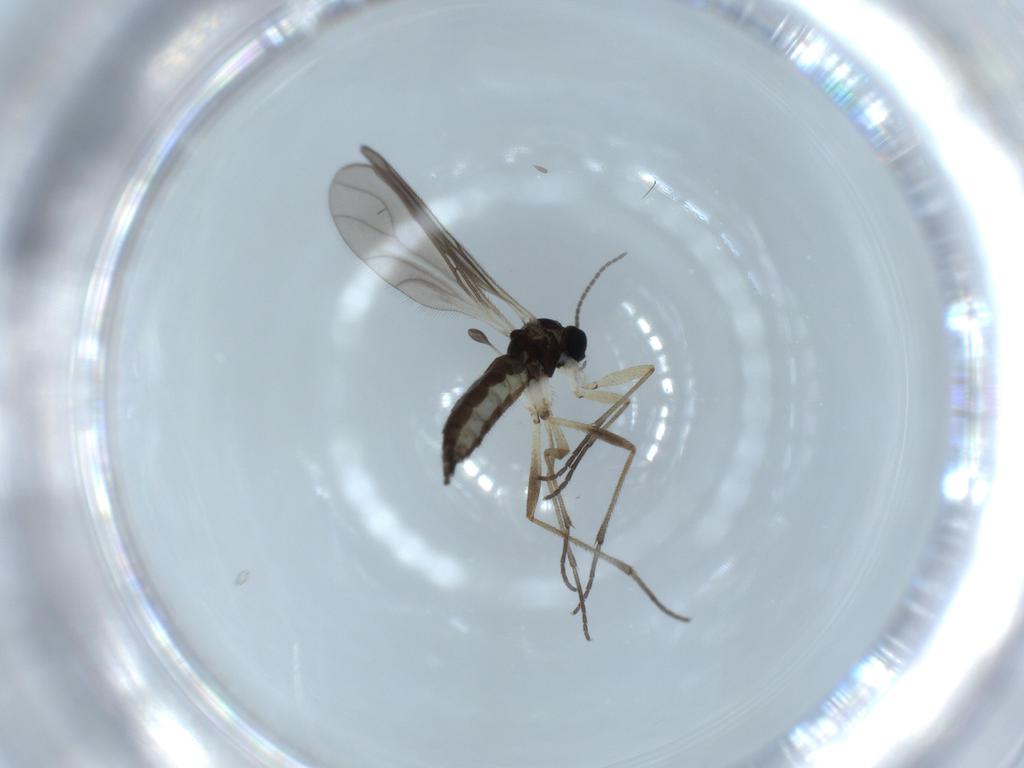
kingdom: Animalia
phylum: Arthropoda
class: Insecta
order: Diptera
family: Sciaridae
